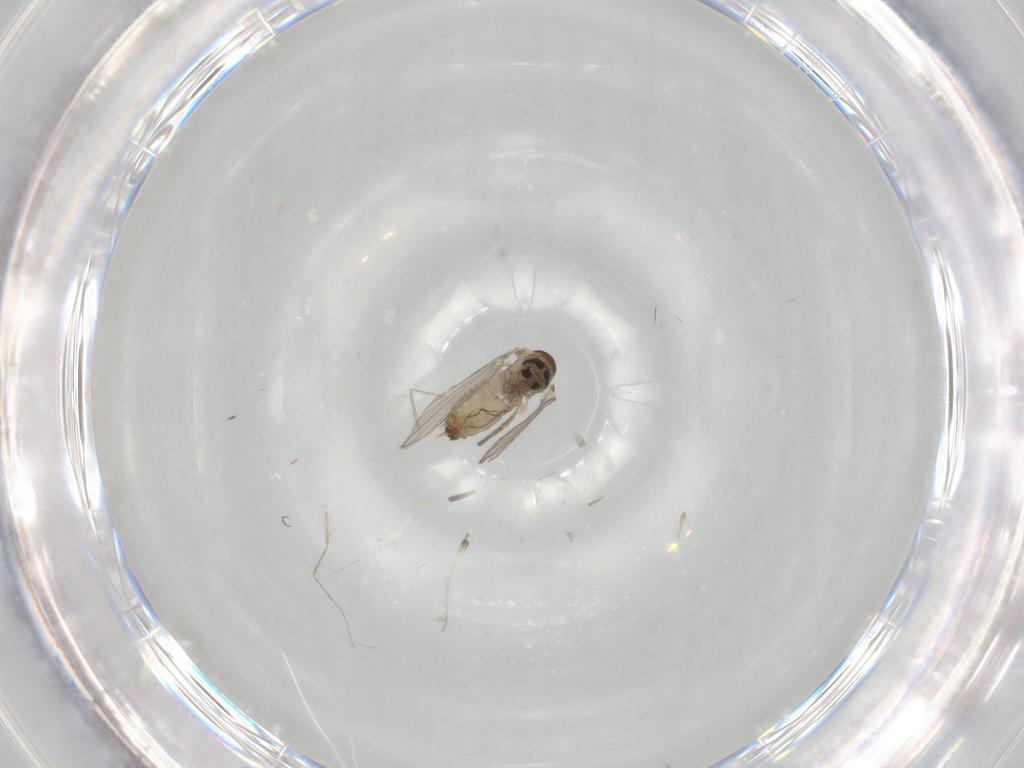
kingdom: Animalia
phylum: Arthropoda
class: Insecta
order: Diptera
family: Psychodidae
